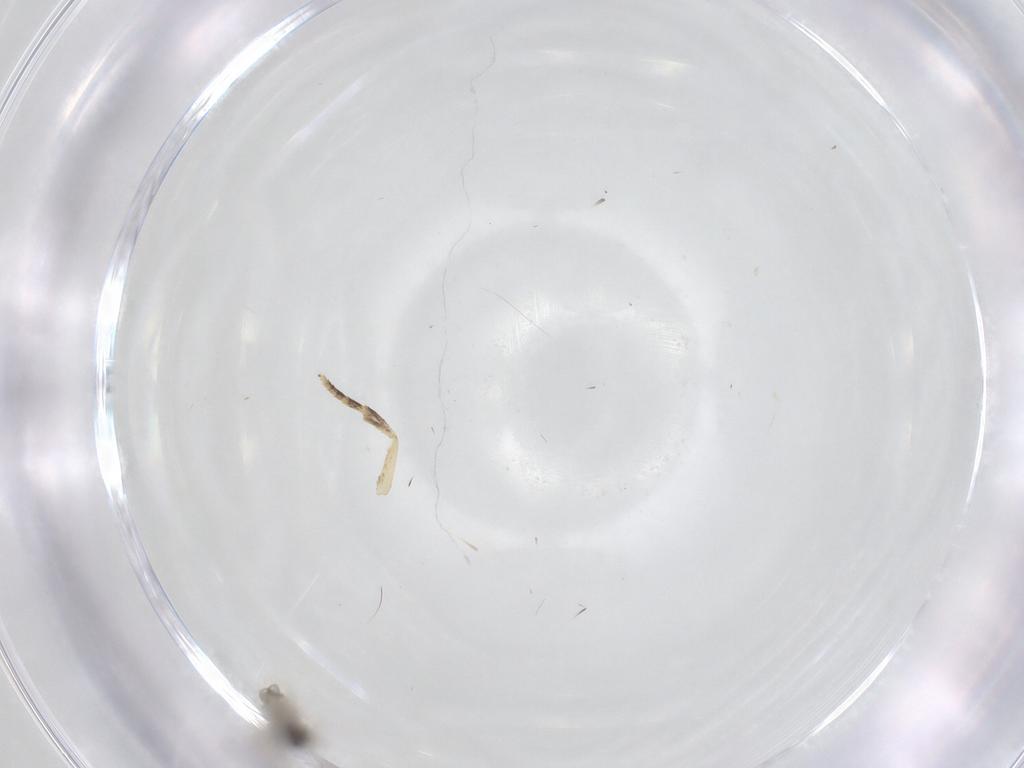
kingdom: Animalia
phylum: Arthropoda
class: Insecta
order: Lepidoptera
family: Oecophoridae
